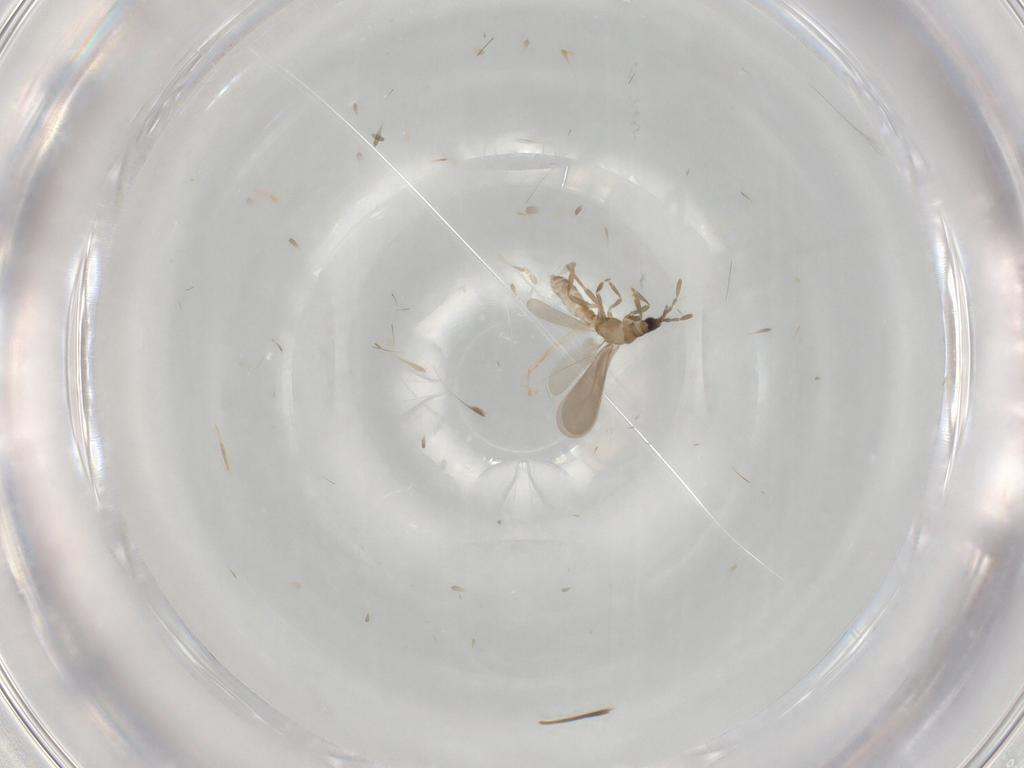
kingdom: Animalia
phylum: Arthropoda
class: Insecta
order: Hemiptera
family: Enicocephalidae
